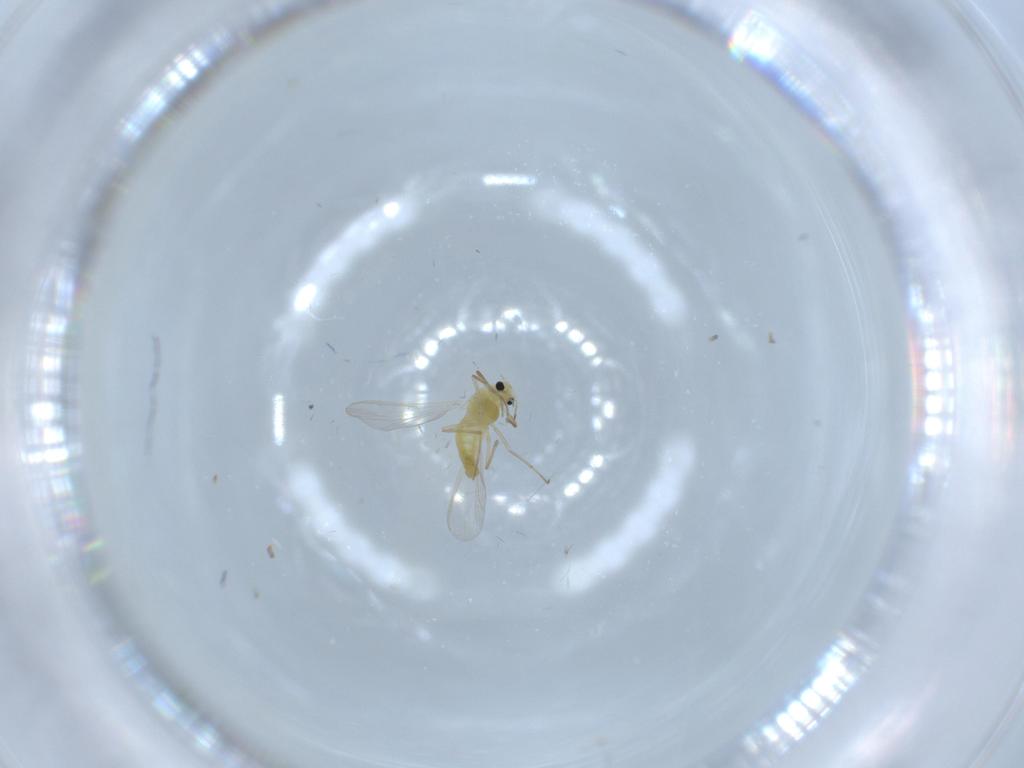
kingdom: Animalia
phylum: Arthropoda
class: Insecta
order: Diptera
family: Chironomidae
